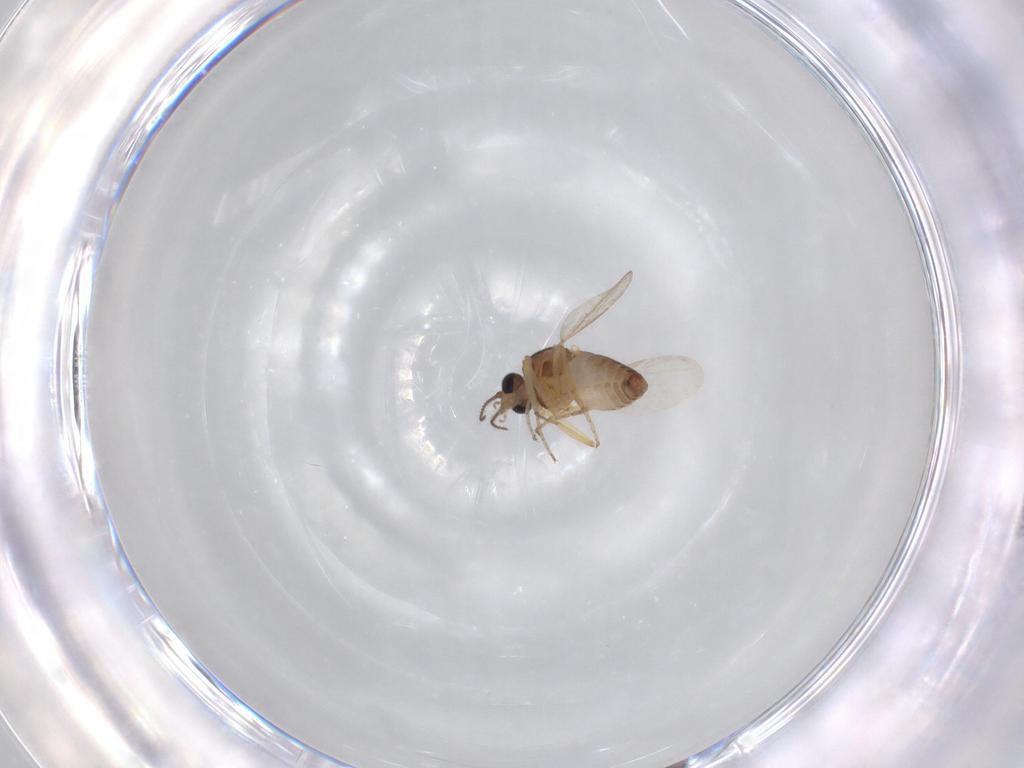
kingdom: Animalia
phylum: Arthropoda
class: Insecta
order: Diptera
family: Ceratopogonidae
